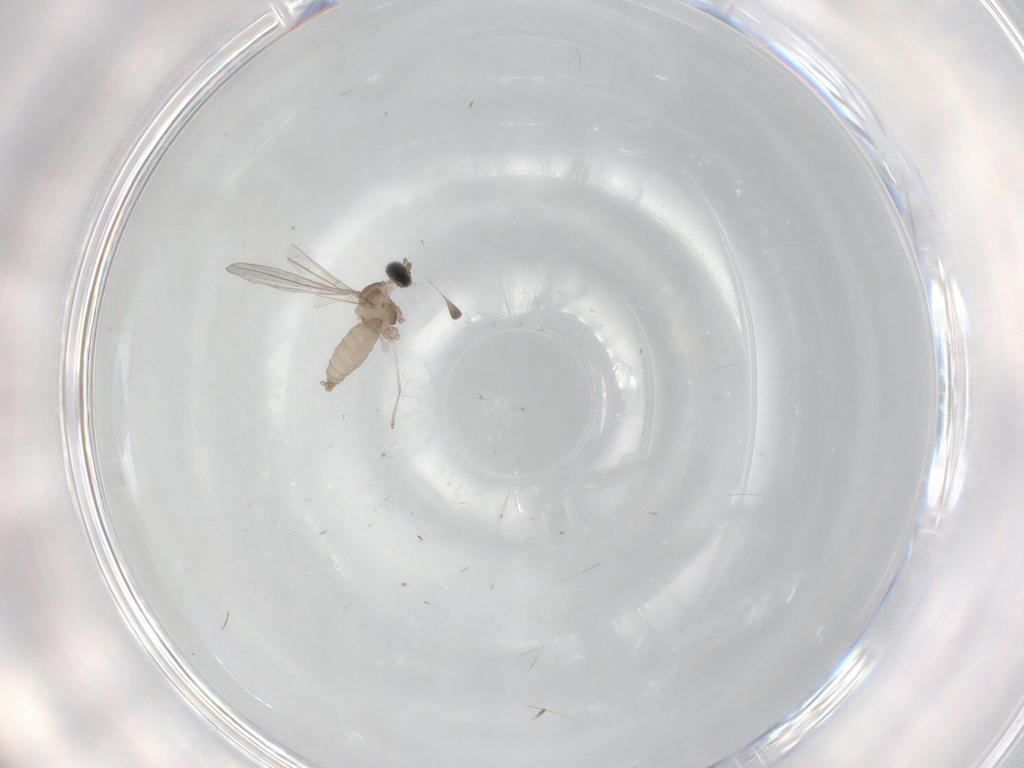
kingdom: Animalia
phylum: Arthropoda
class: Insecta
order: Diptera
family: Cecidomyiidae
